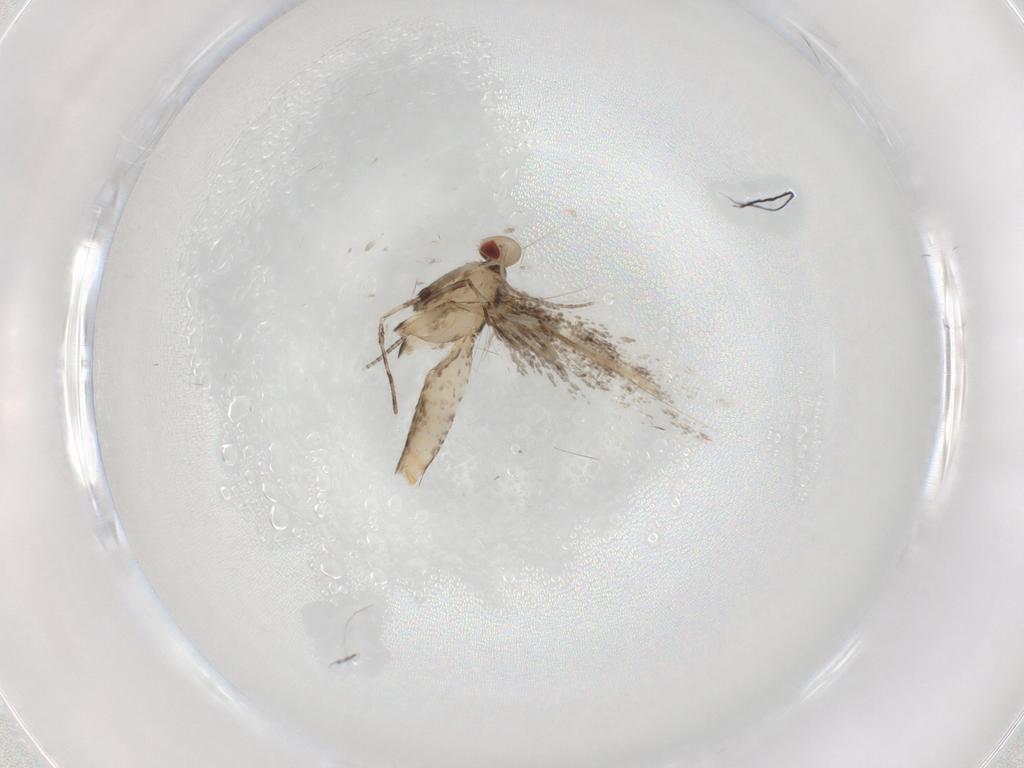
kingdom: Animalia
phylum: Arthropoda
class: Insecta
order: Lepidoptera
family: Gracillariidae
